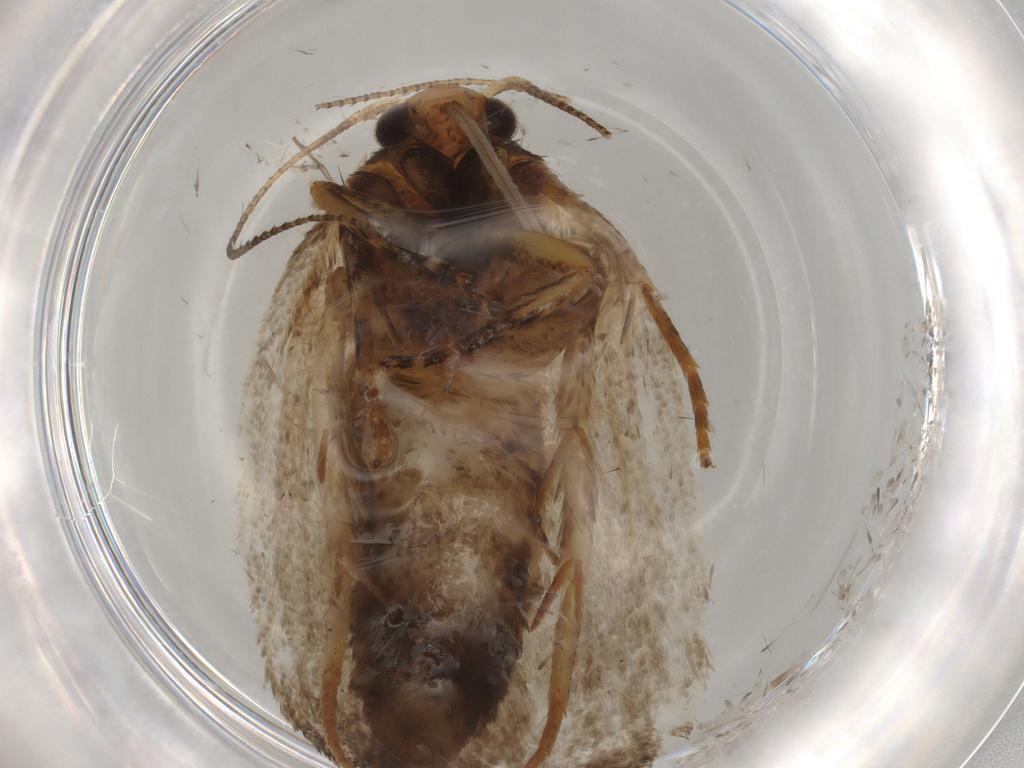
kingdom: Animalia
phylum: Arthropoda
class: Insecta
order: Lepidoptera
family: Oecophoridae
